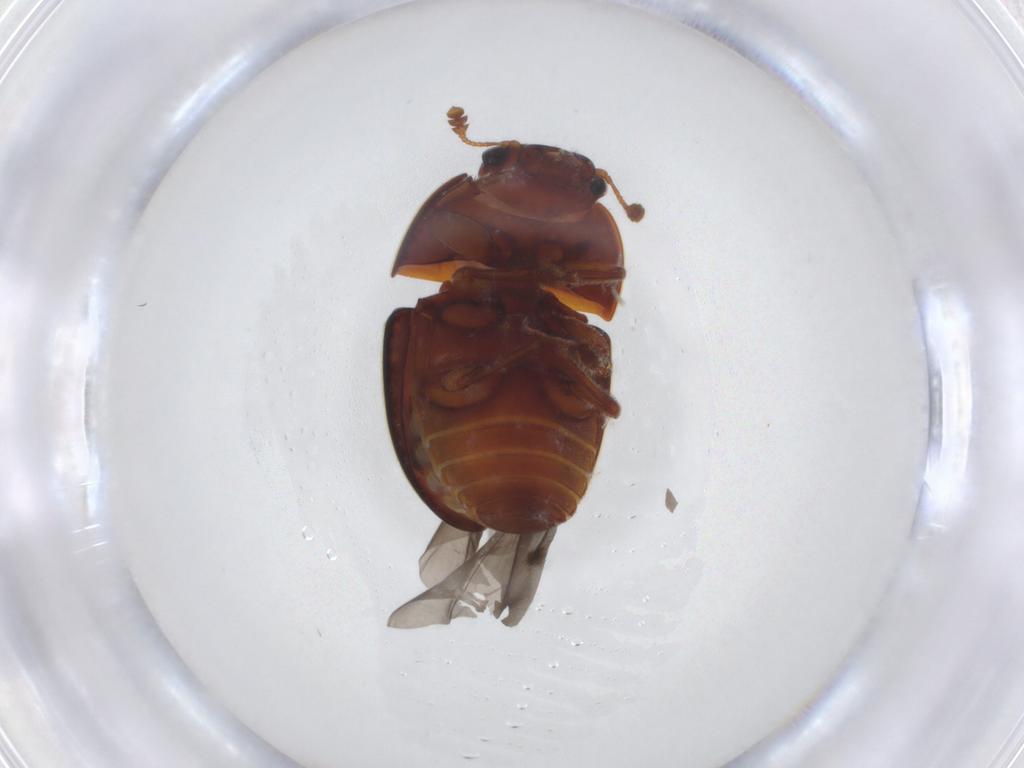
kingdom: Animalia
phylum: Arthropoda
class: Insecta
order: Coleoptera
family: Nitidulidae
